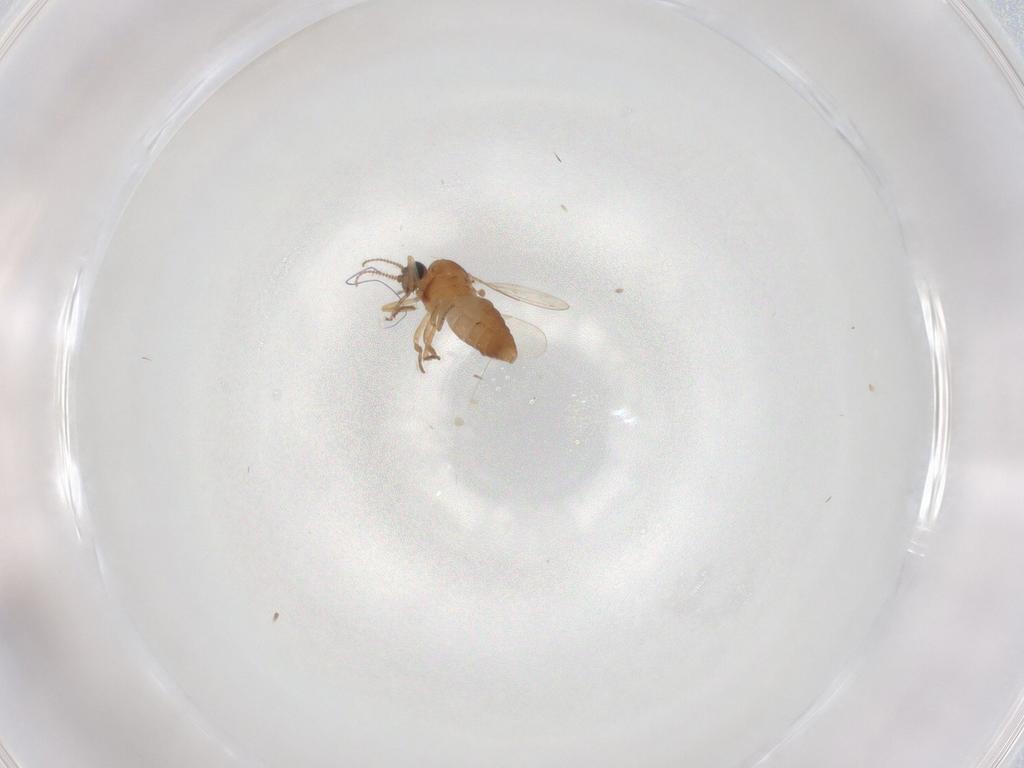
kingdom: Animalia
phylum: Arthropoda
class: Insecta
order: Diptera
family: Ceratopogonidae
